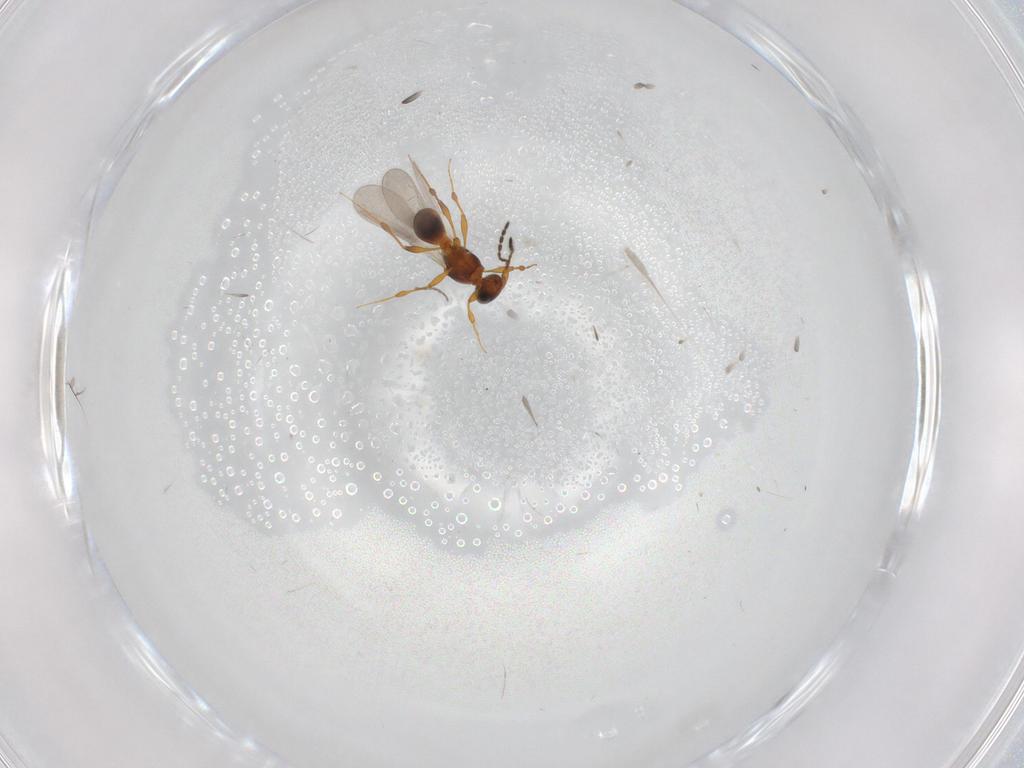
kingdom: Animalia
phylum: Arthropoda
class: Insecta
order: Hymenoptera
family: Platygastridae
